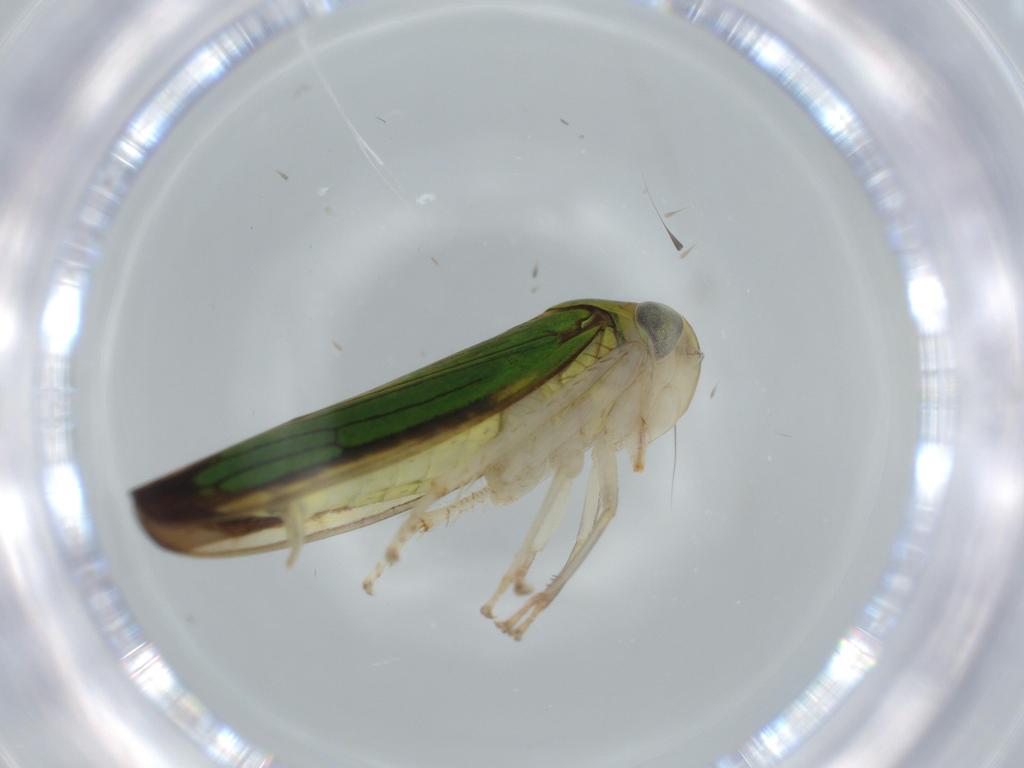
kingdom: Animalia
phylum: Arthropoda
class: Insecta
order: Hemiptera
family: Cicadellidae
